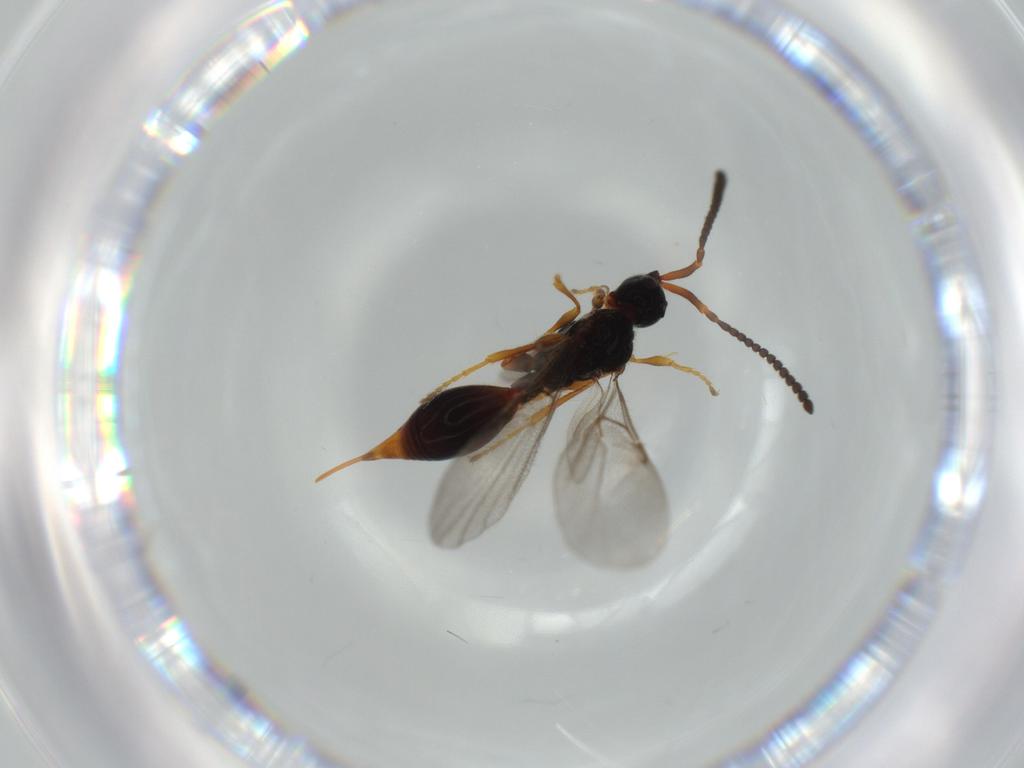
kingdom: Animalia
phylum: Arthropoda
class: Insecta
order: Hymenoptera
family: Diapriidae
